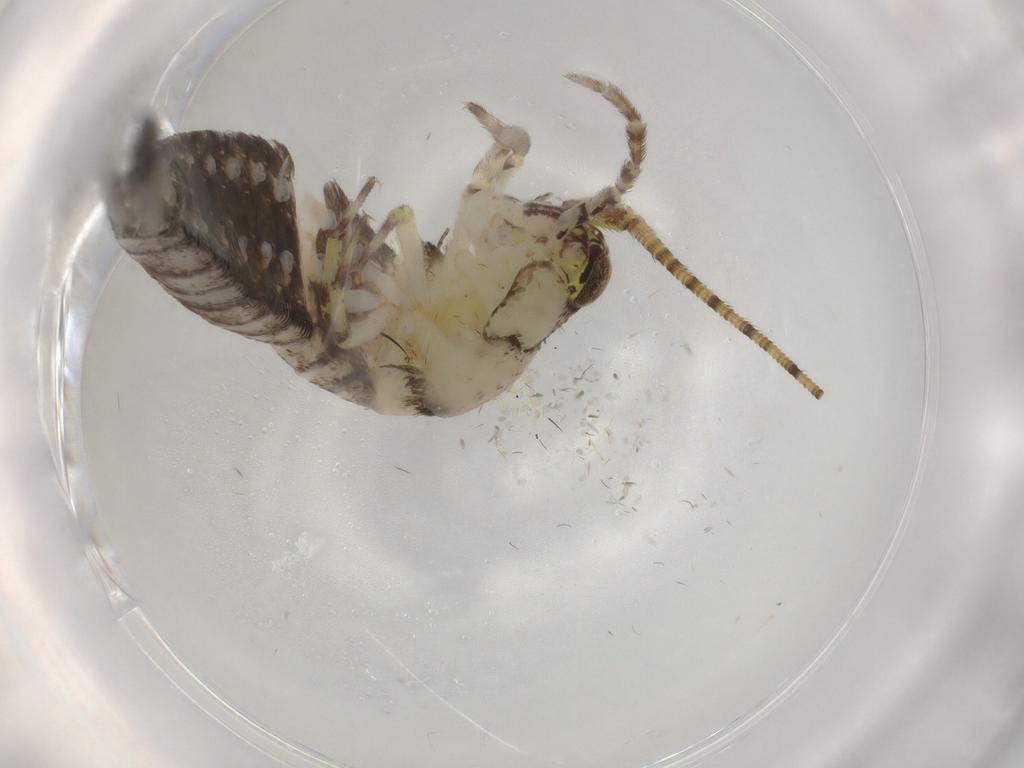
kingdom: Animalia
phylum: Arthropoda
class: Insecta
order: Archaeognatha
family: Machilidae
